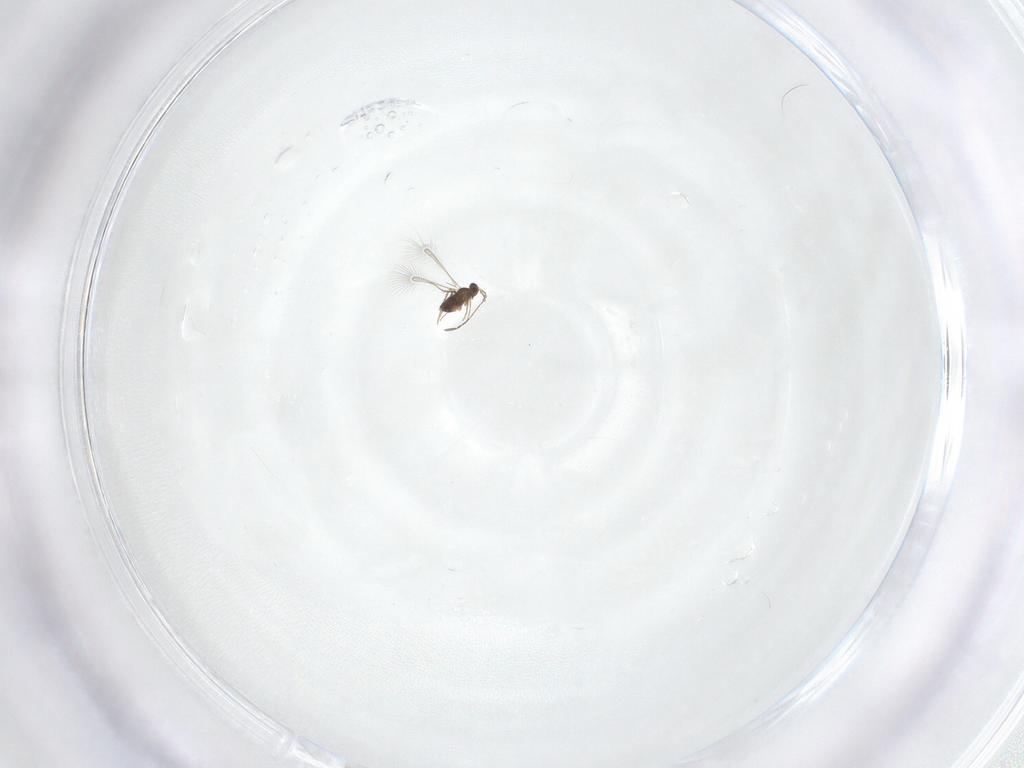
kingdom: Animalia
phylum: Arthropoda
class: Insecta
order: Hymenoptera
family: Mymaridae
